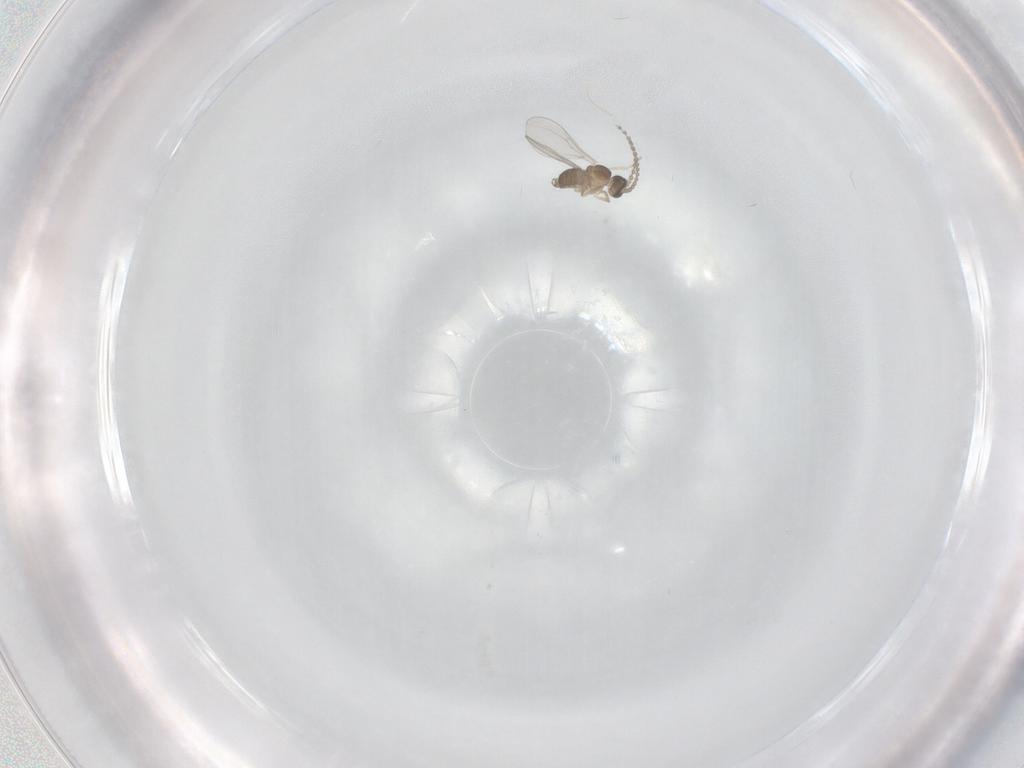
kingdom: Animalia
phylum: Arthropoda
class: Insecta
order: Diptera
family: Cecidomyiidae
